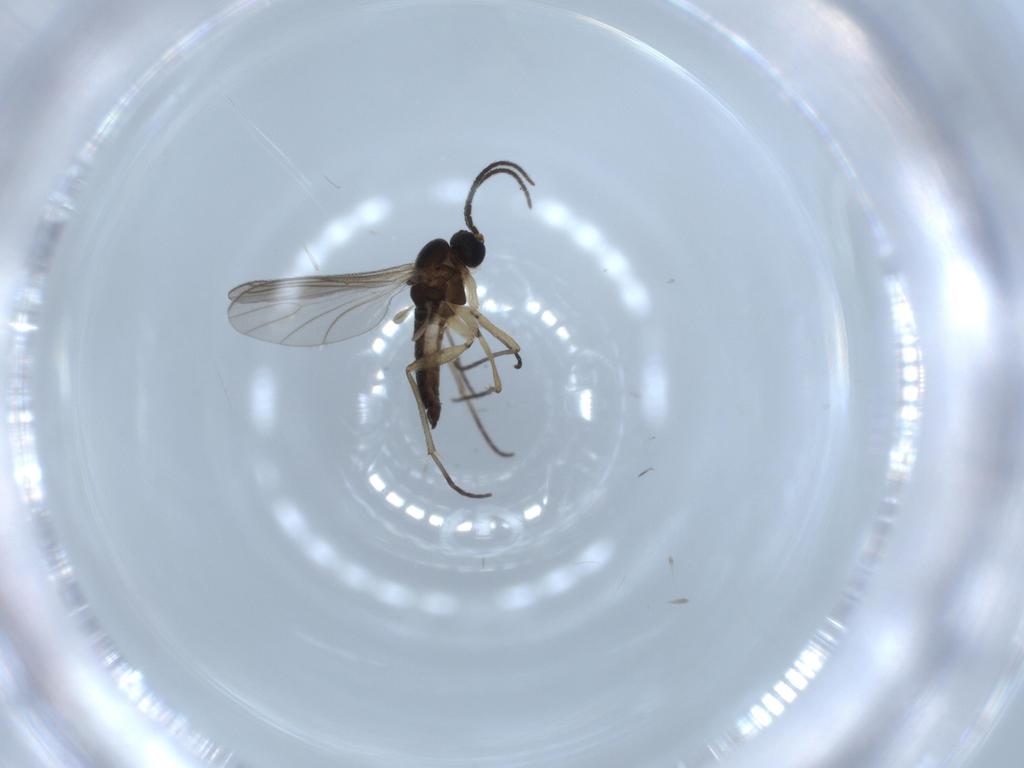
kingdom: Animalia
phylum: Arthropoda
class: Insecta
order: Diptera
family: Sciaridae
